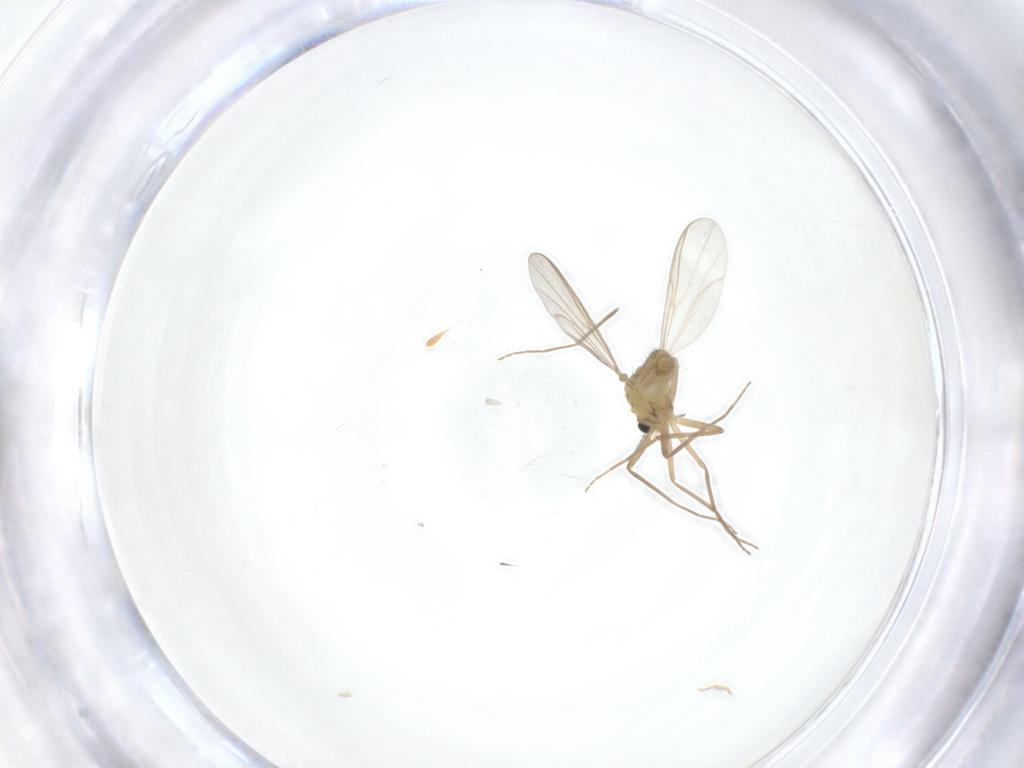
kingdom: Animalia
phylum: Arthropoda
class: Insecta
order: Diptera
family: Chironomidae
